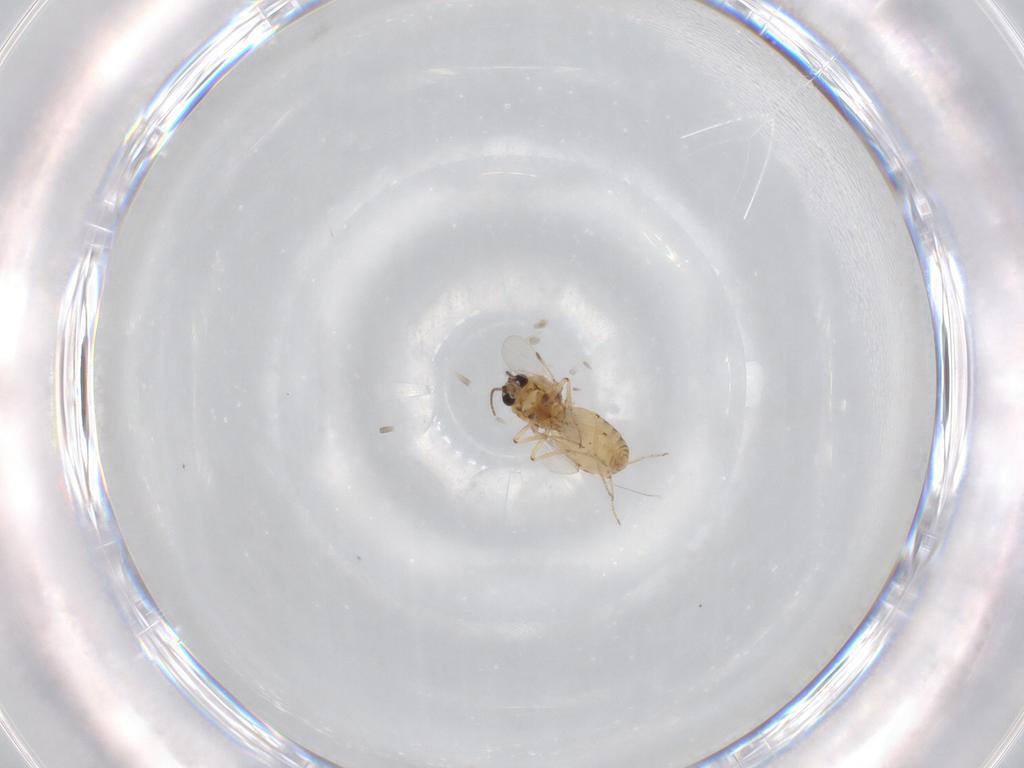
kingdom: Animalia
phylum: Arthropoda
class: Insecta
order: Diptera
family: Ceratopogonidae
